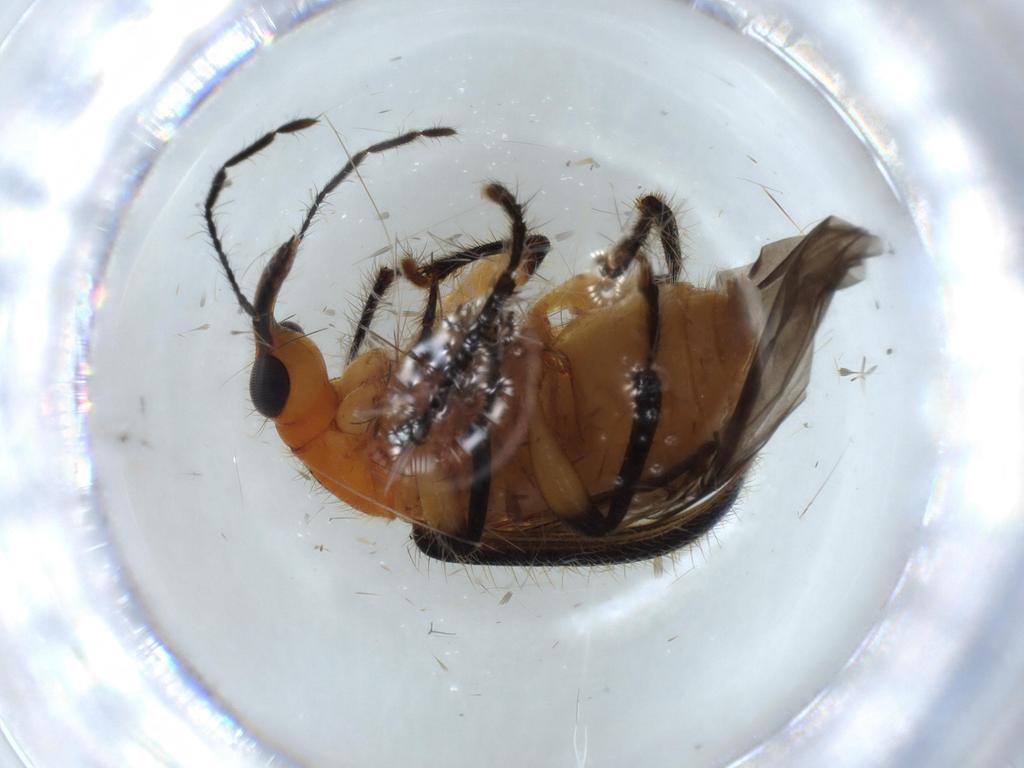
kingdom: Animalia
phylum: Arthropoda
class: Insecta
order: Coleoptera
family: Attelabidae
